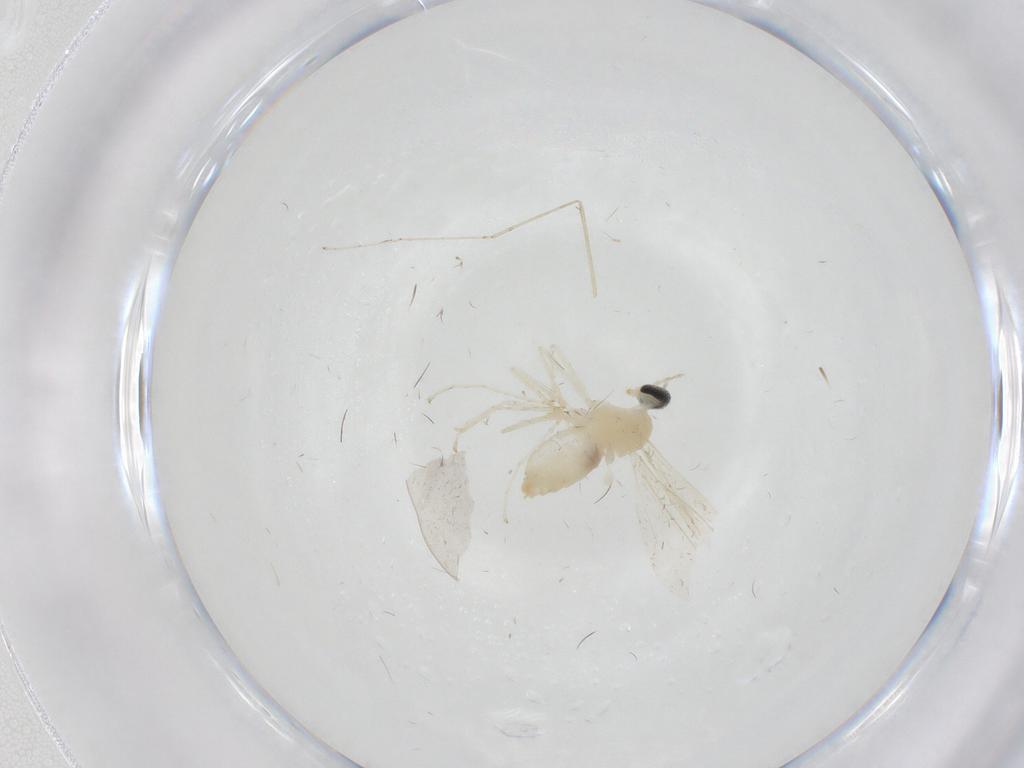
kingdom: Animalia
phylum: Arthropoda
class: Insecta
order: Diptera
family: Cecidomyiidae
